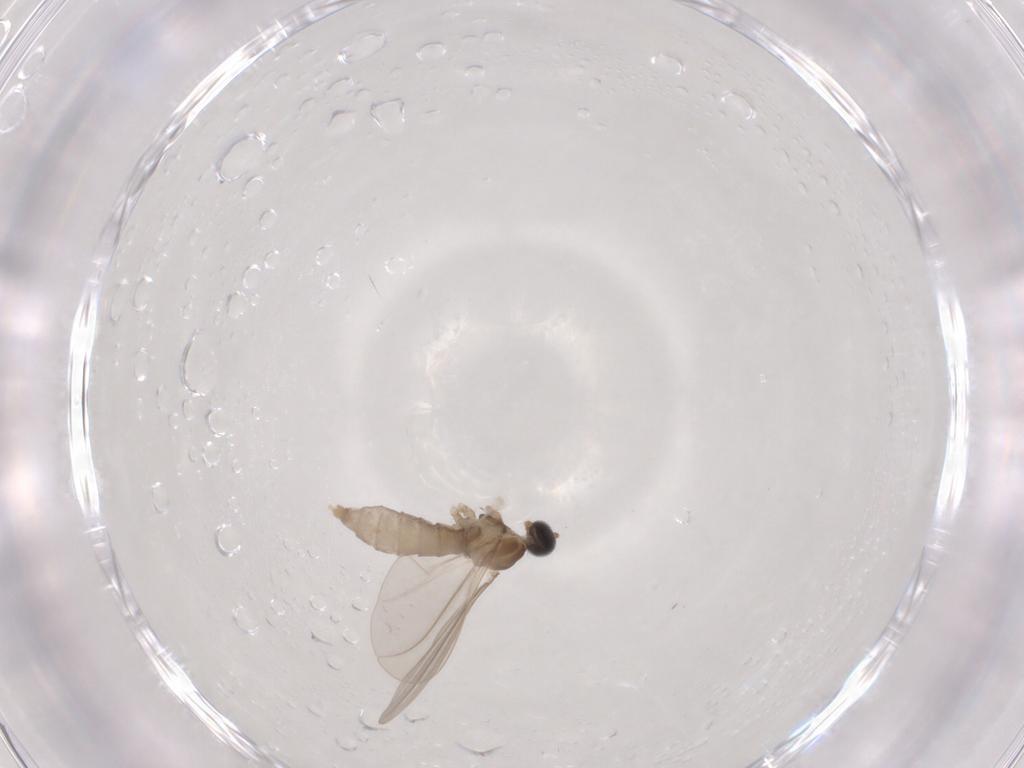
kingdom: Animalia
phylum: Arthropoda
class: Insecta
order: Diptera
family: Cecidomyiidae
